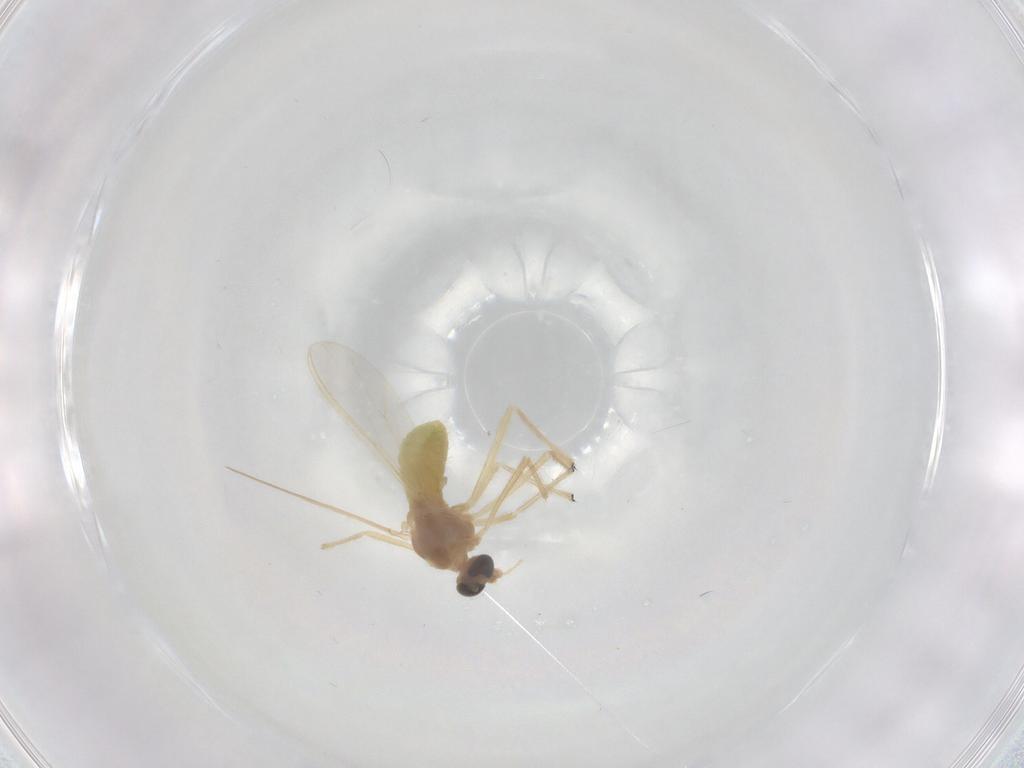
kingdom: Animalia
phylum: Arthropoda
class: Insecta
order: Diptera
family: Chironomidae
